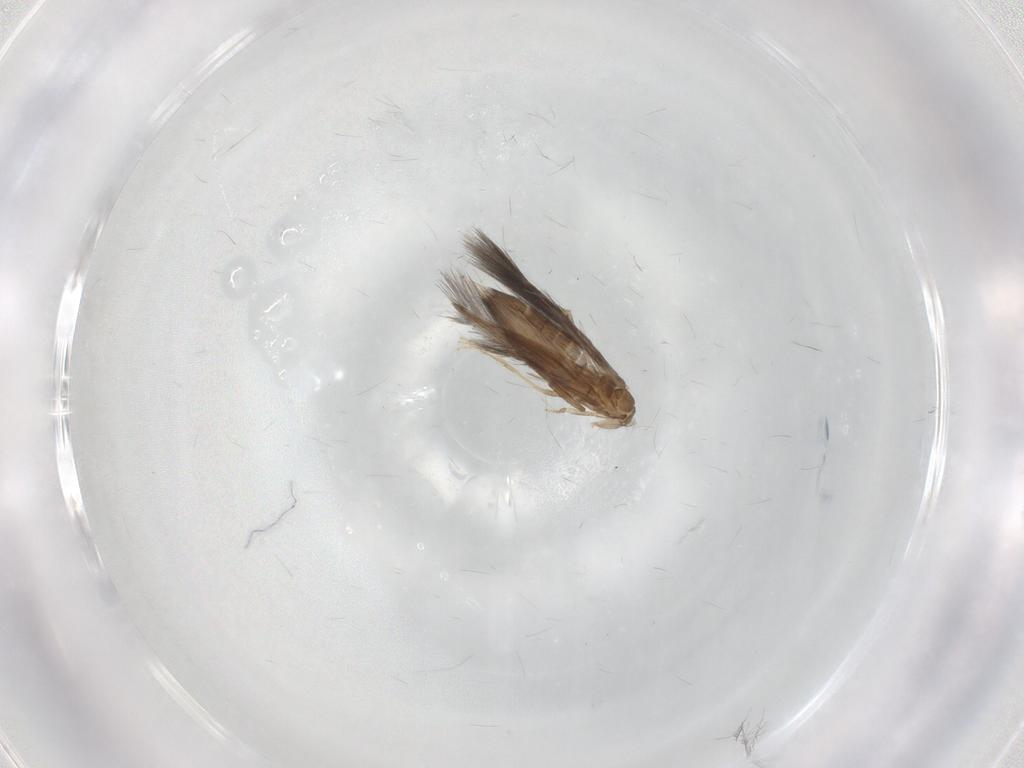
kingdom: Animalia
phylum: Arthropoda
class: Insecta
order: Trichoptera
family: Hydroptilidae
